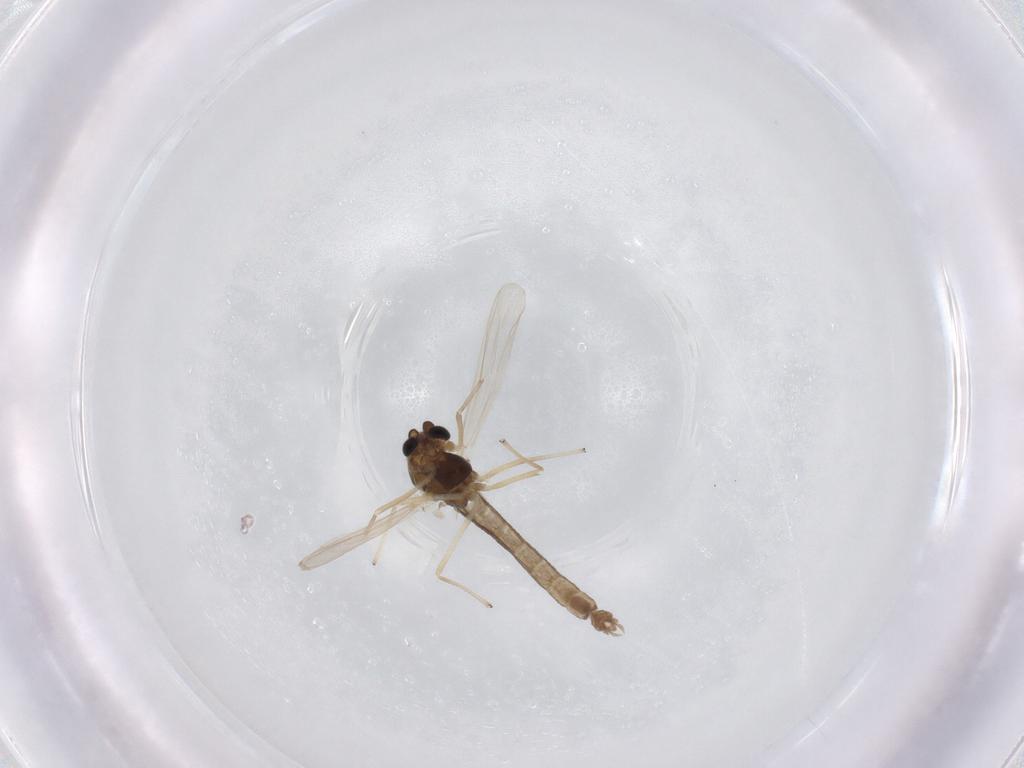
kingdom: Animalia
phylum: Arthropoda
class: Insecta
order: Diptera
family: Chironomidae
